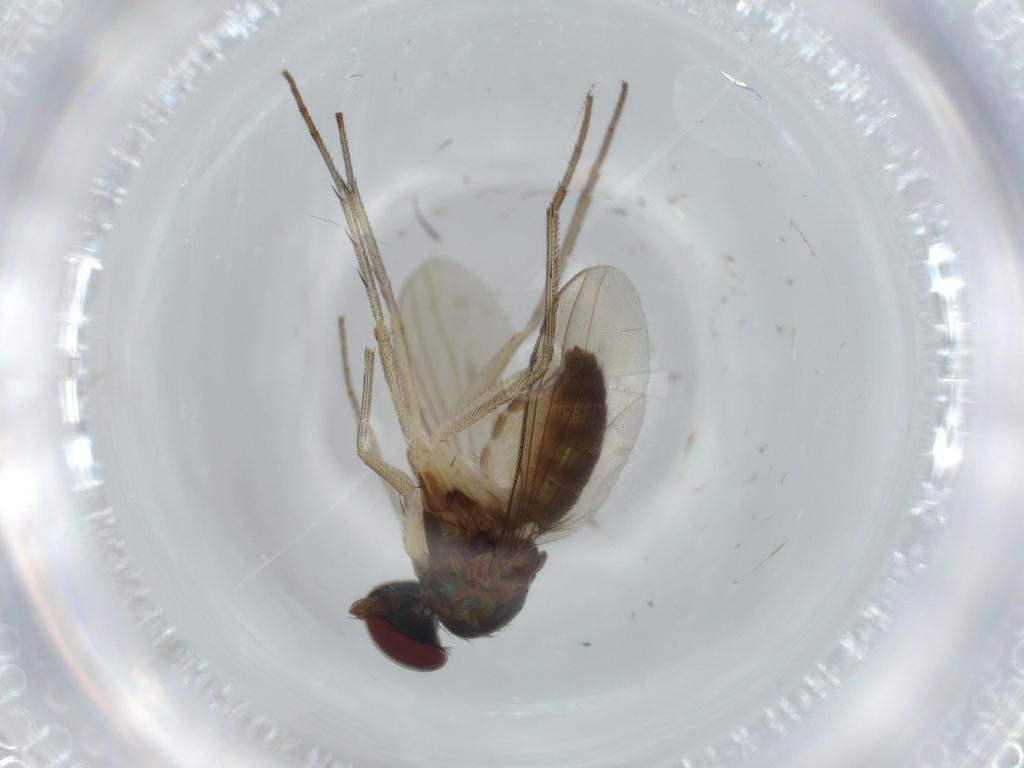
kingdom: Animalia
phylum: Arthropoda
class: Insecta
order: Diptera
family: Dolichopodidae
